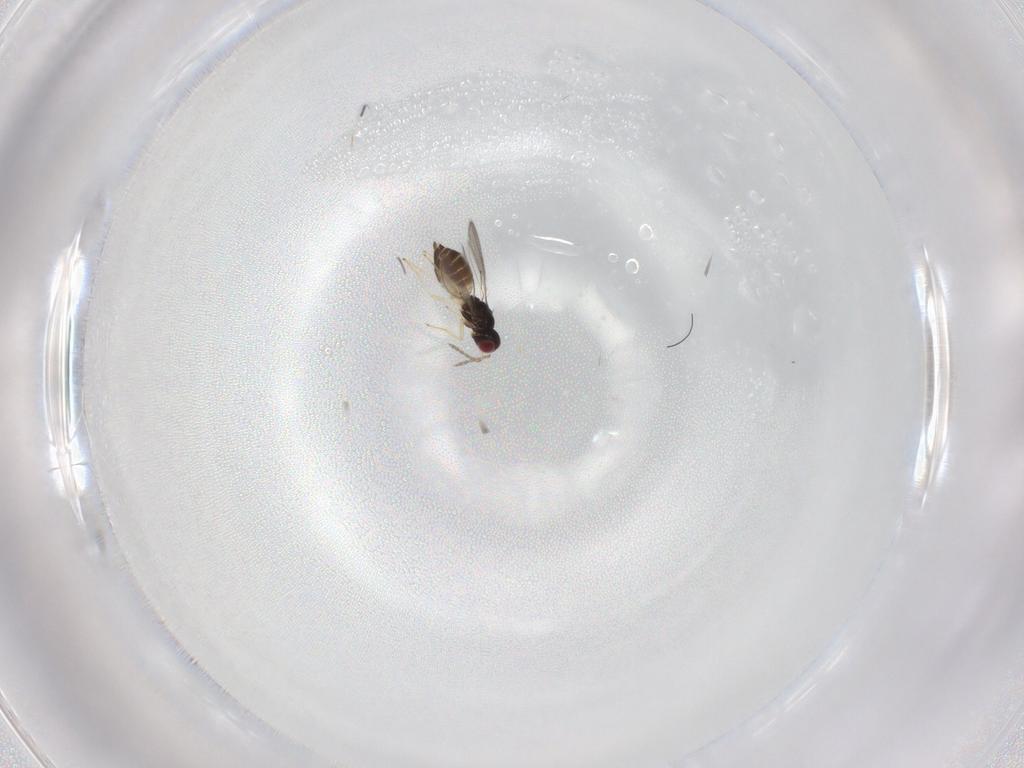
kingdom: Animalia
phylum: Arthropoda
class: Insecta
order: Hymenoptera
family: Eulophidae
